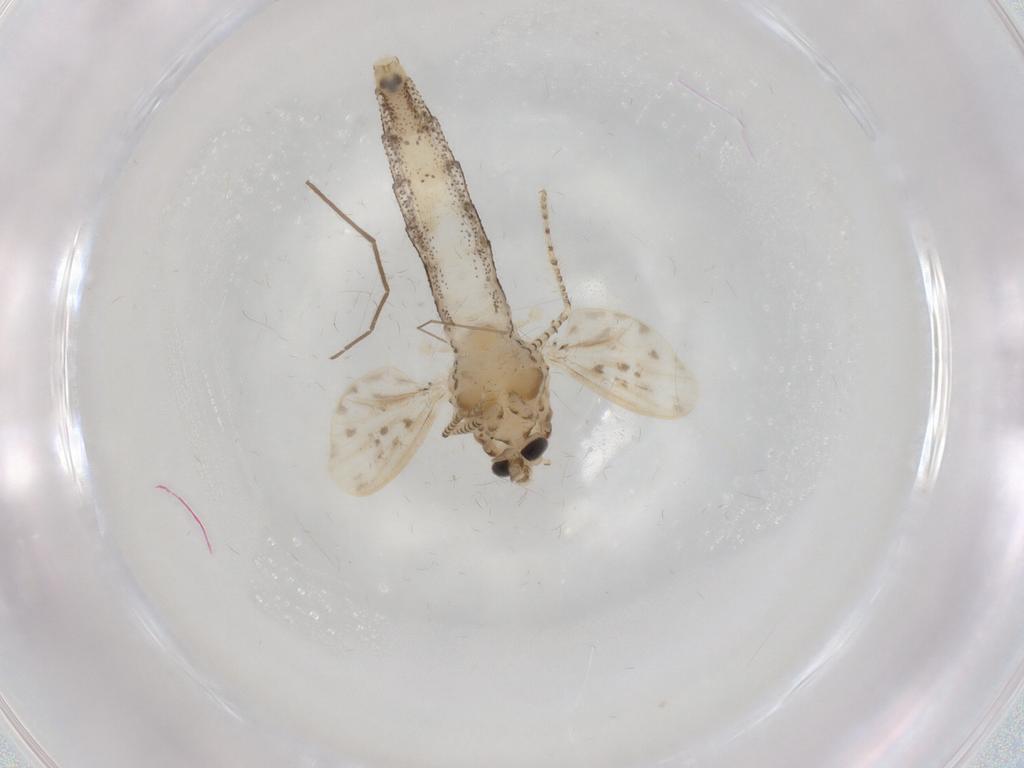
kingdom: Animalia
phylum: Arthropoda
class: Insecta
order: Diptera
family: Chaoboridae
